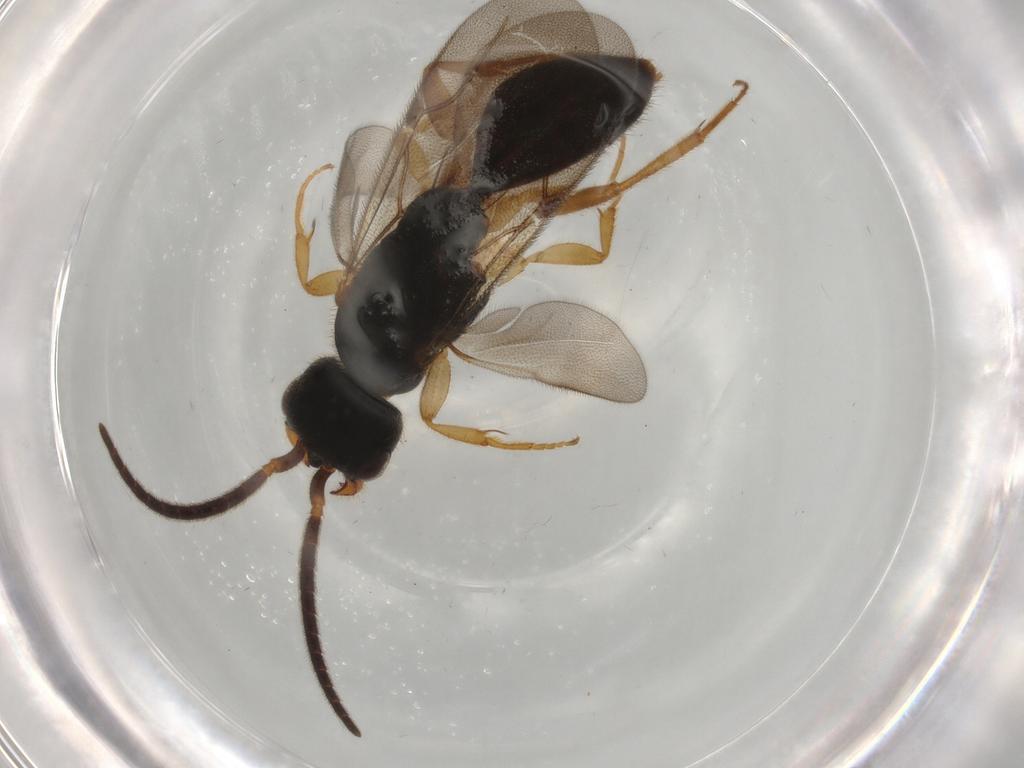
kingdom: Animalia
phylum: Arthropoda
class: Insecta
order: Hymenoptera
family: Bethylidae
